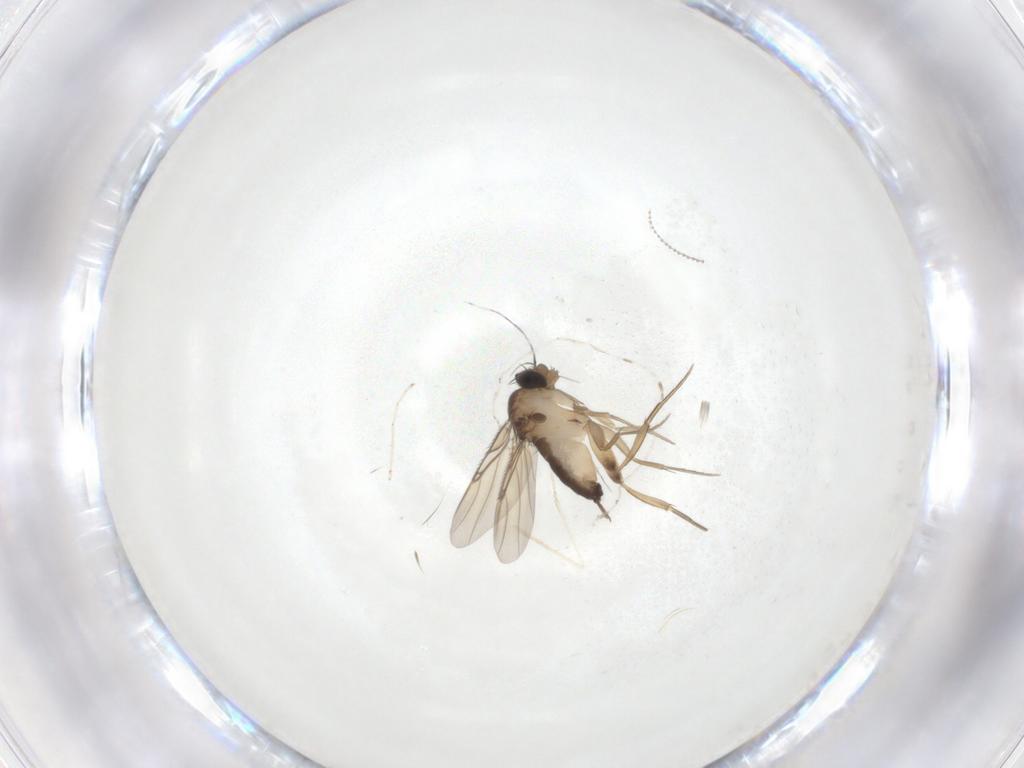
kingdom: Animalia
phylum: Arthropoda
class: Insecta
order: Diptera
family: Phoridae
